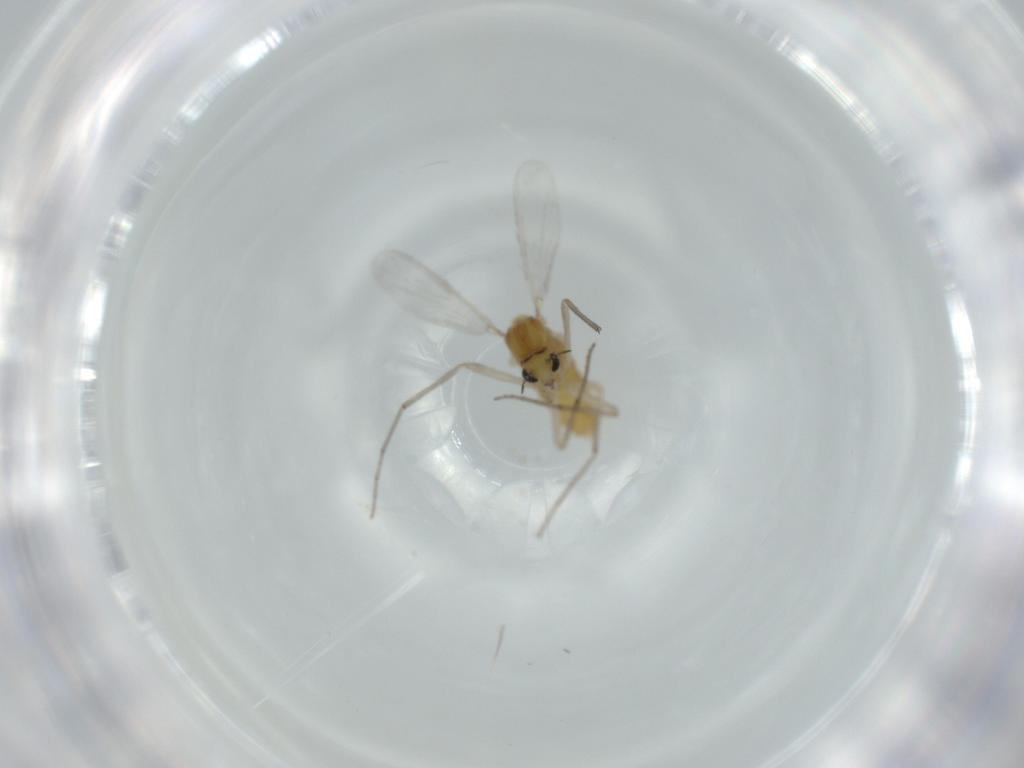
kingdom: Animalia
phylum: Arthropoda
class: Insecta
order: Diptera
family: Chironomidae
